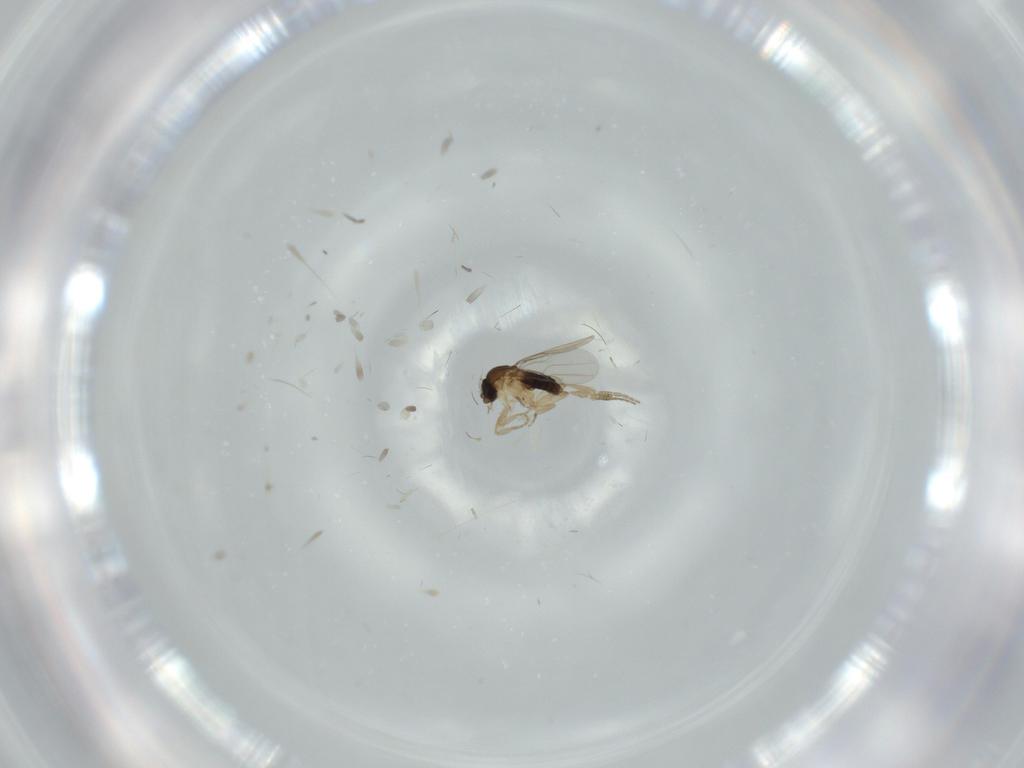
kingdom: Animalia
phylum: Arthropoda
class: Insecta
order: Diptera
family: Phoridae
